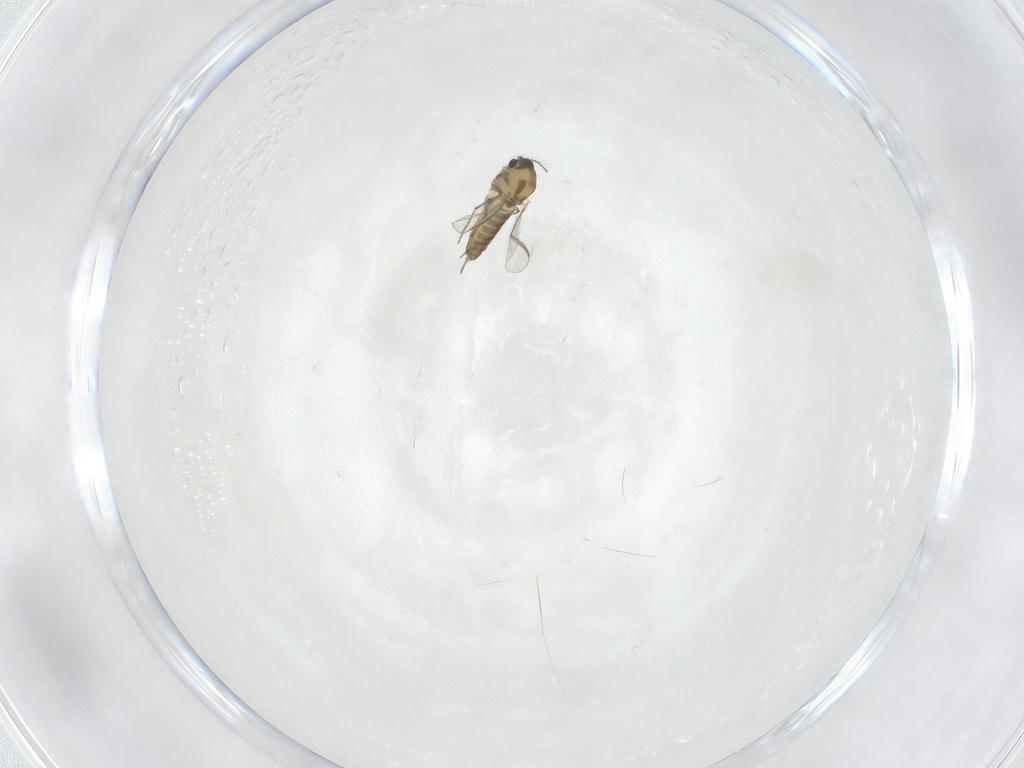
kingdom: Animalia
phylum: Arthropoda
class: Insecta
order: Diptera
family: Chironomidae
